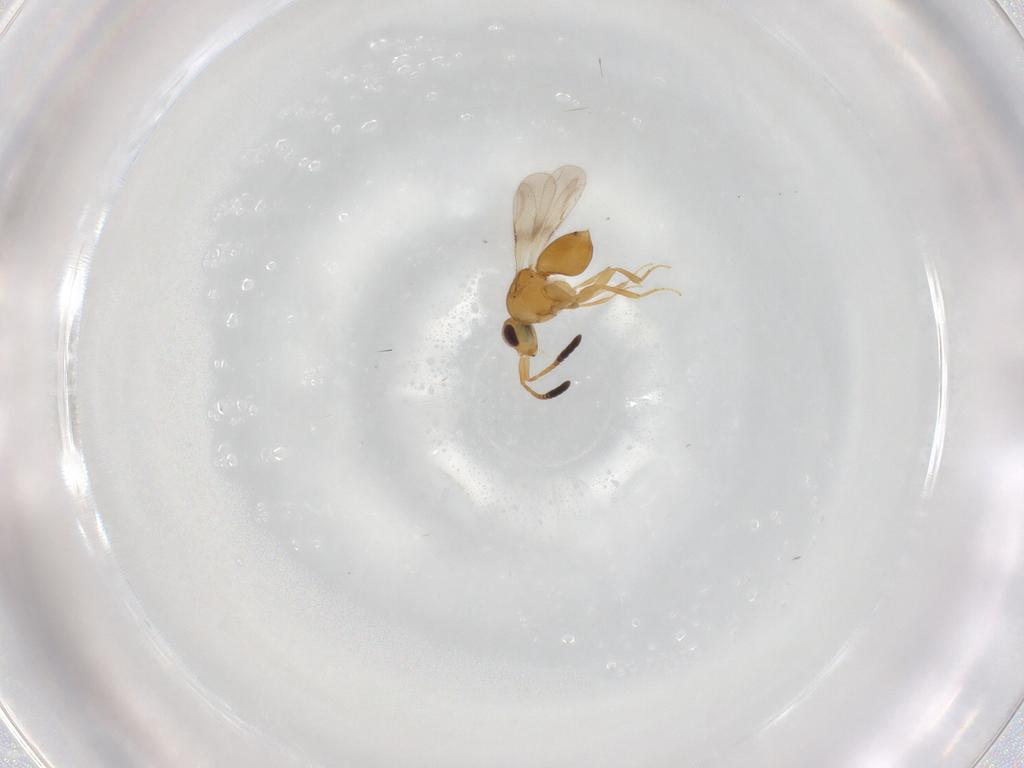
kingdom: Animalia
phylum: Arthropoda
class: Insecta
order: Hymenoptera
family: Ceraphronidae
